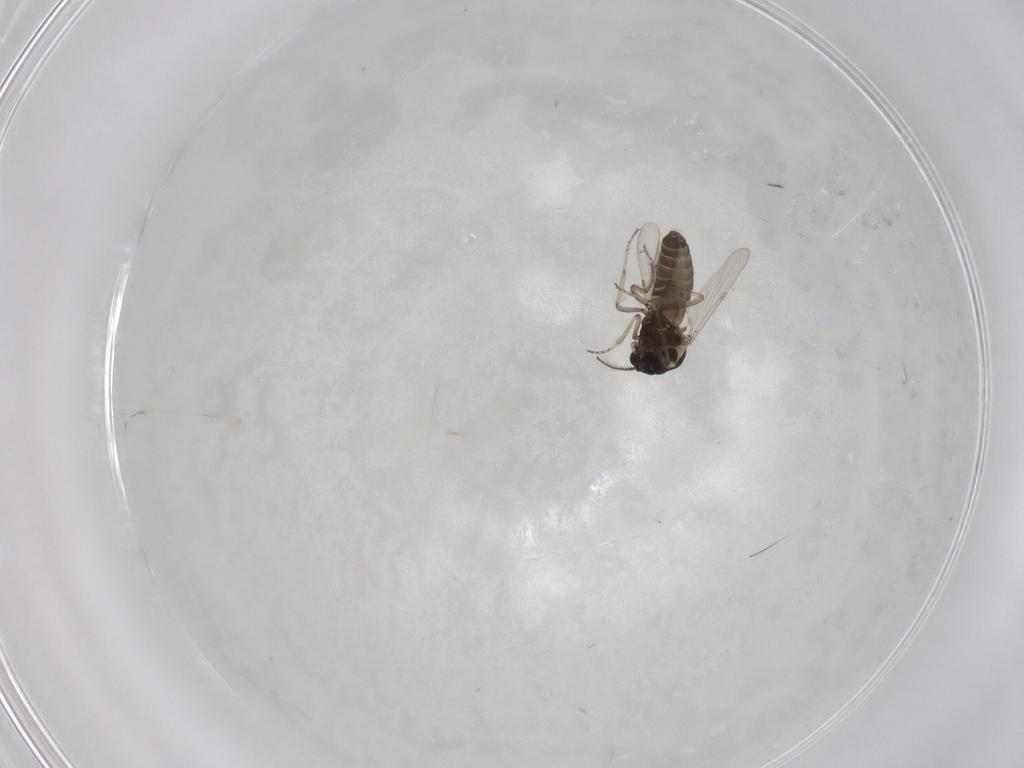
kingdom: Animalia
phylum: Arthropoda
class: Insecta
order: Diptera
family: Ceratopogonidae
